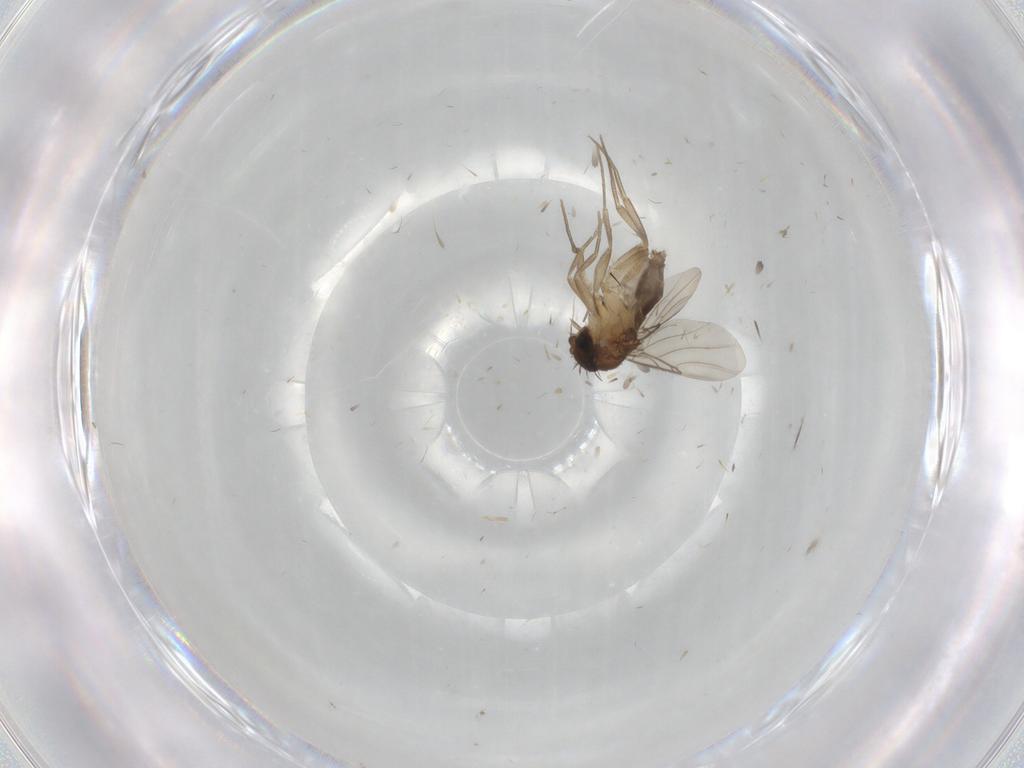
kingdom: Animalia
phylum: Arthropoda
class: Insecta
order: Diptera
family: Phoridae
